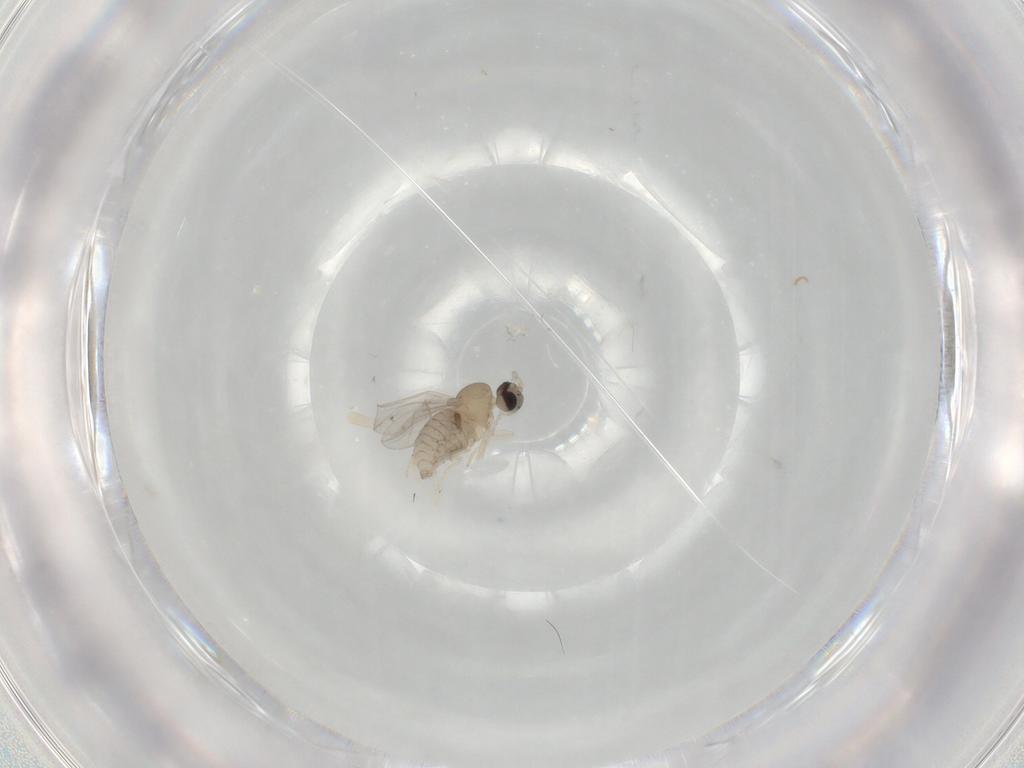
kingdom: Animalia
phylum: Arthropoda
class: Insecta
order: Diptera
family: Cecidomyiidae
